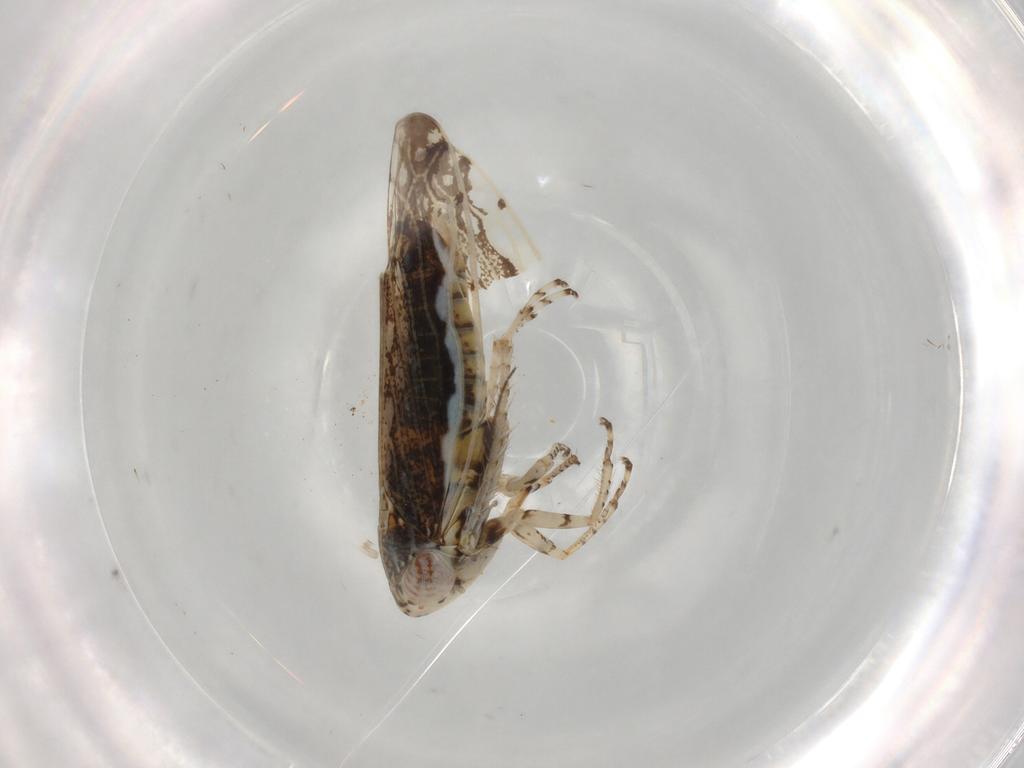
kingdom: Animalia
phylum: Arthropoda
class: Insecta
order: Hemiptera
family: Cicadellidae
